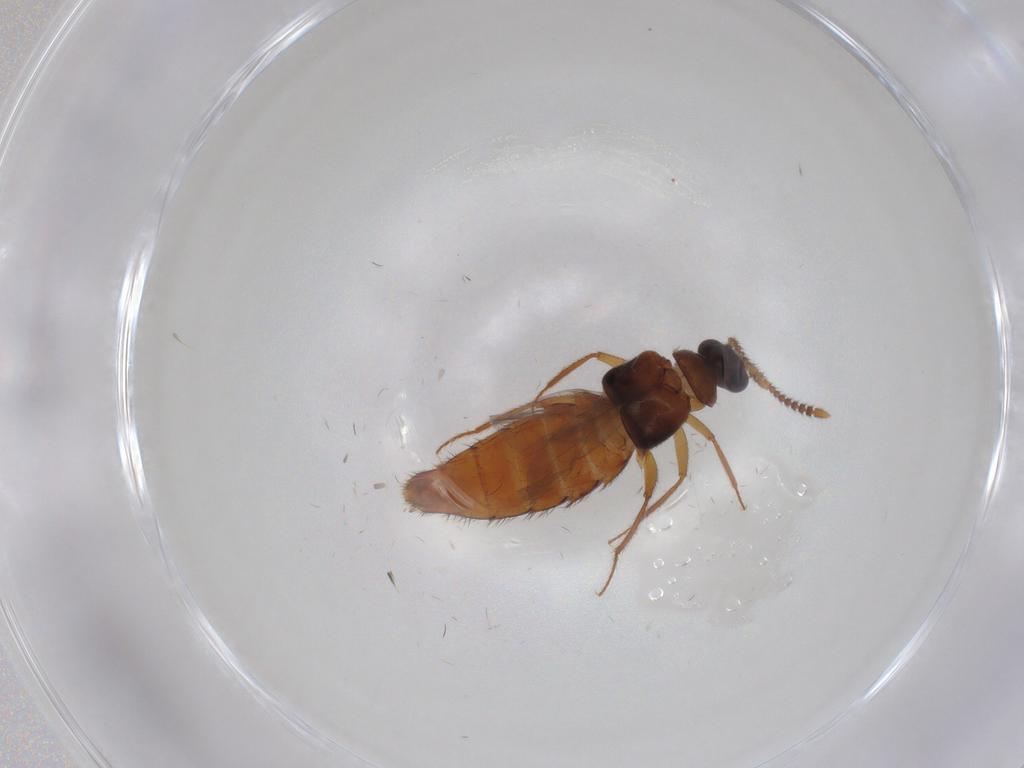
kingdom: Animalia
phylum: Arthropoda
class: Insecta
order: Coleoptera
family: Staphylinidae
